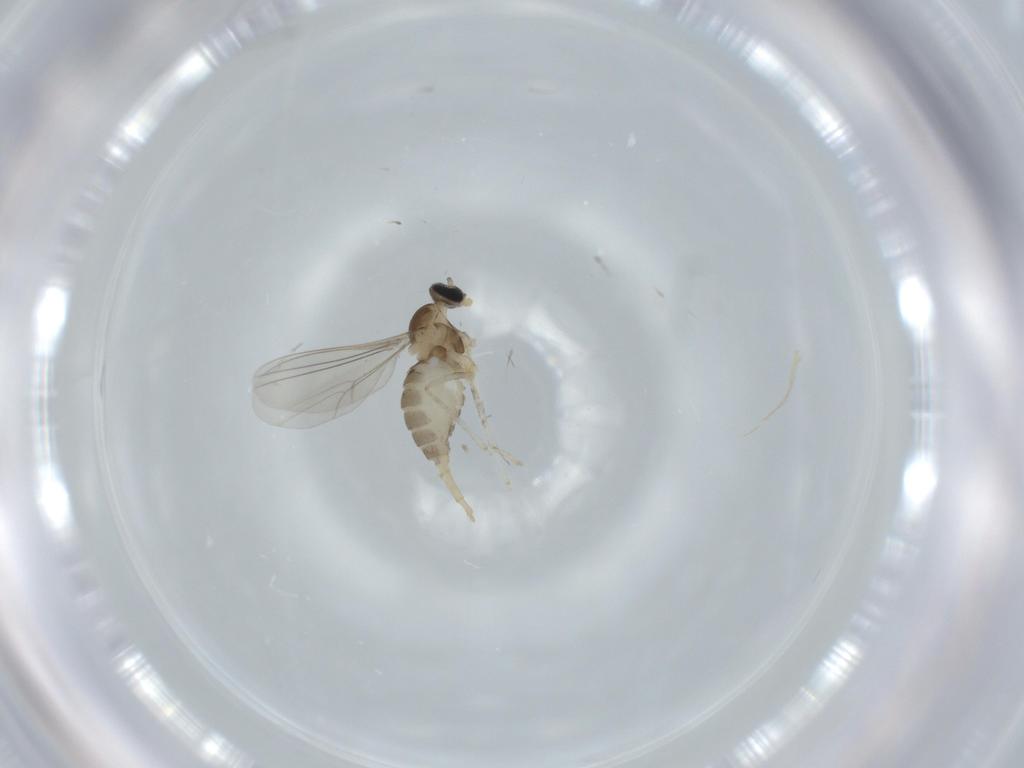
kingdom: Animalia
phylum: Arthropoda
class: Insecta
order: Diptera
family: Cecidomyiidae
